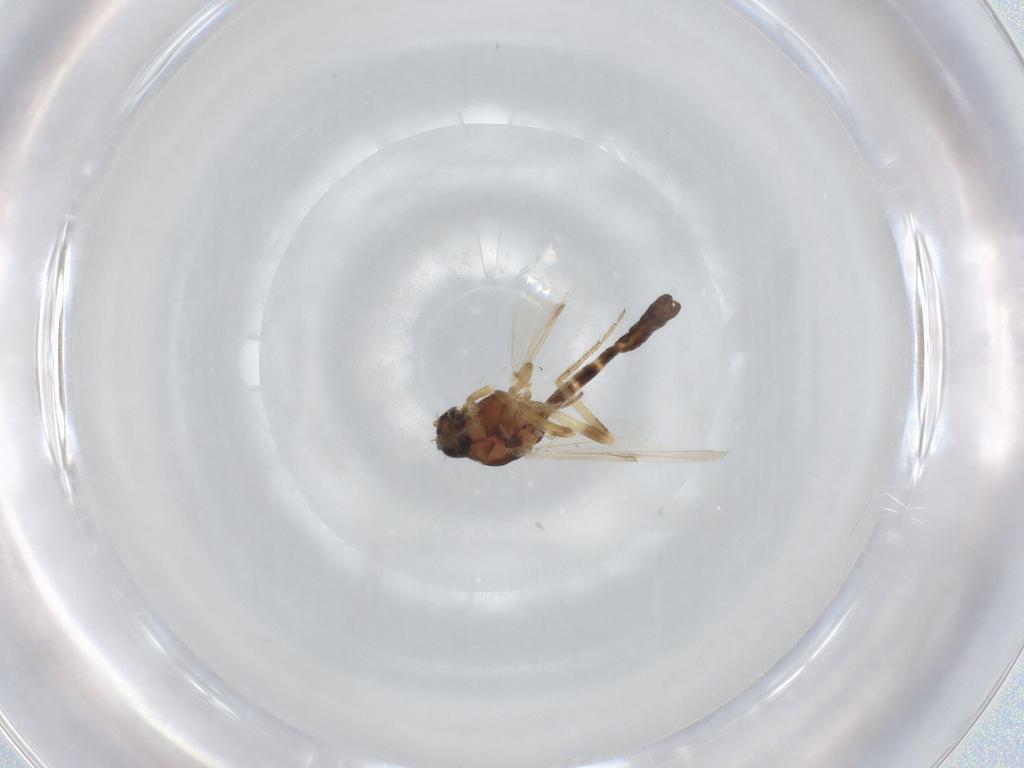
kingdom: Animalia
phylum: Arthropoda
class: Insecta
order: Diptera
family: Ceratopogonidae
